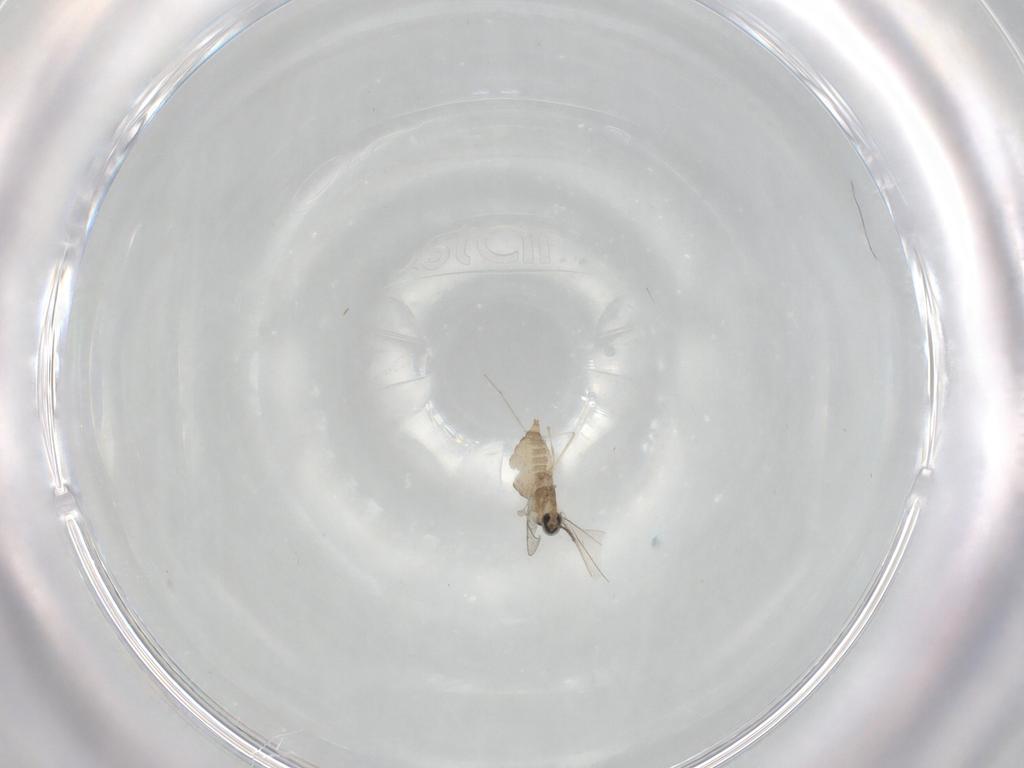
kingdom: Animalia
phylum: Arthropoda
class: Insecta
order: Diptera
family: Cecidomyiidae
